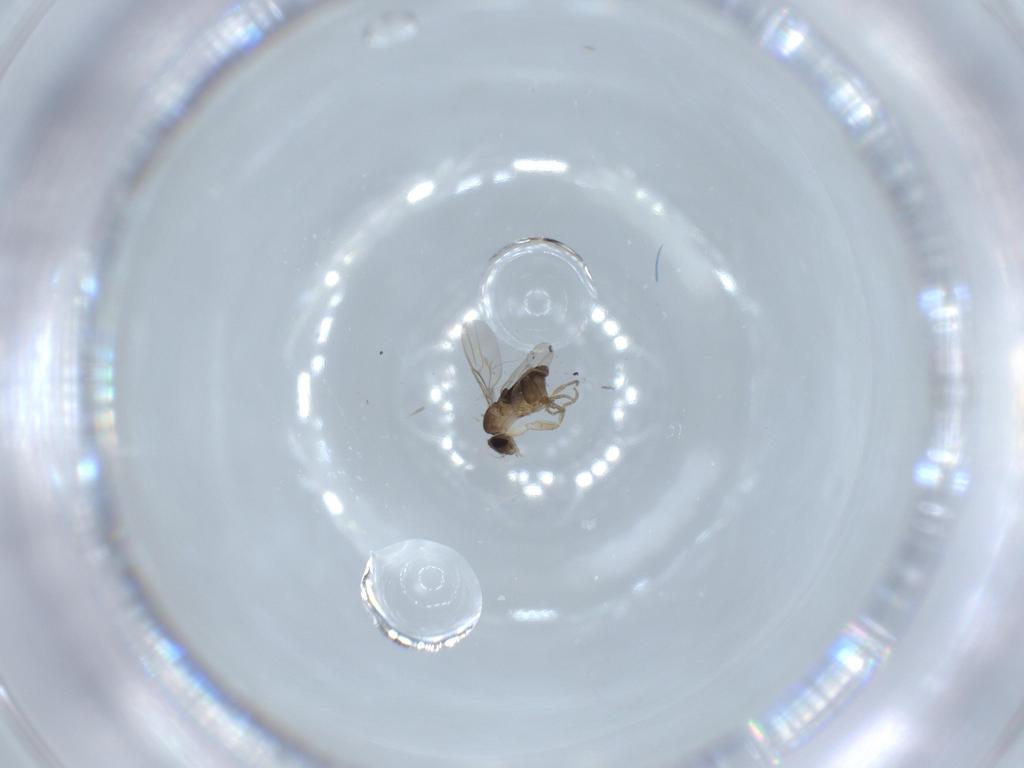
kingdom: Animalia
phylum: Arthropoda
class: Insecta
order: Diptera
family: Phoridae
